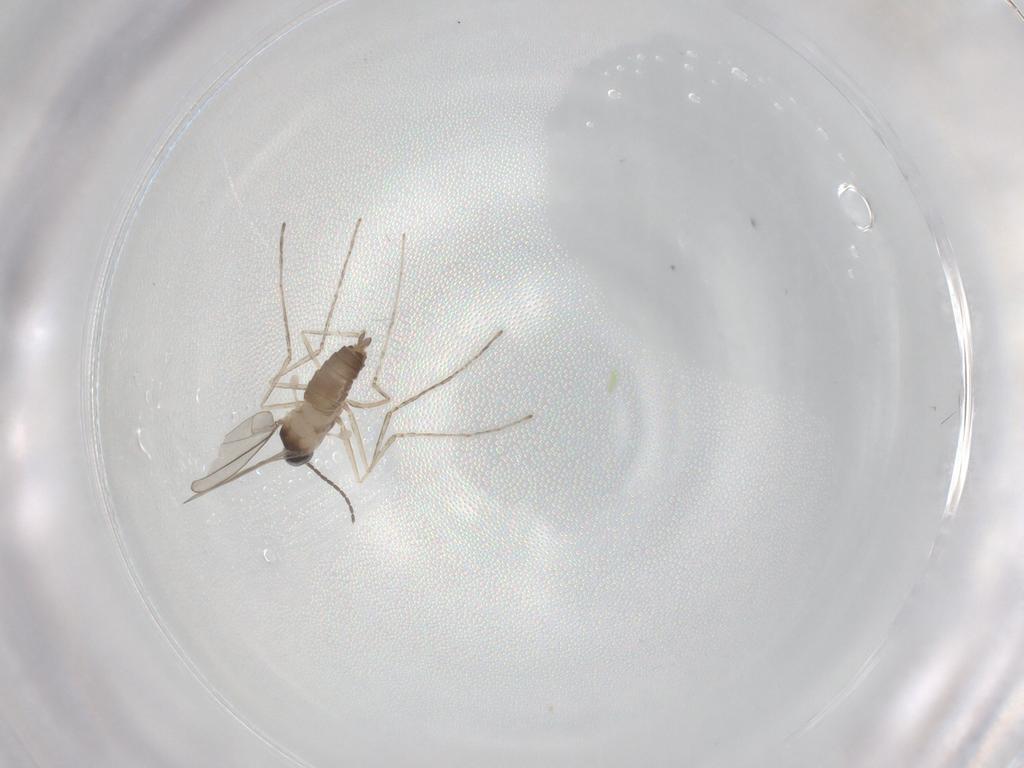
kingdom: Animalia
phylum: Arthropoda
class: Insecta
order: Diptera
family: Cecidomyiidae
